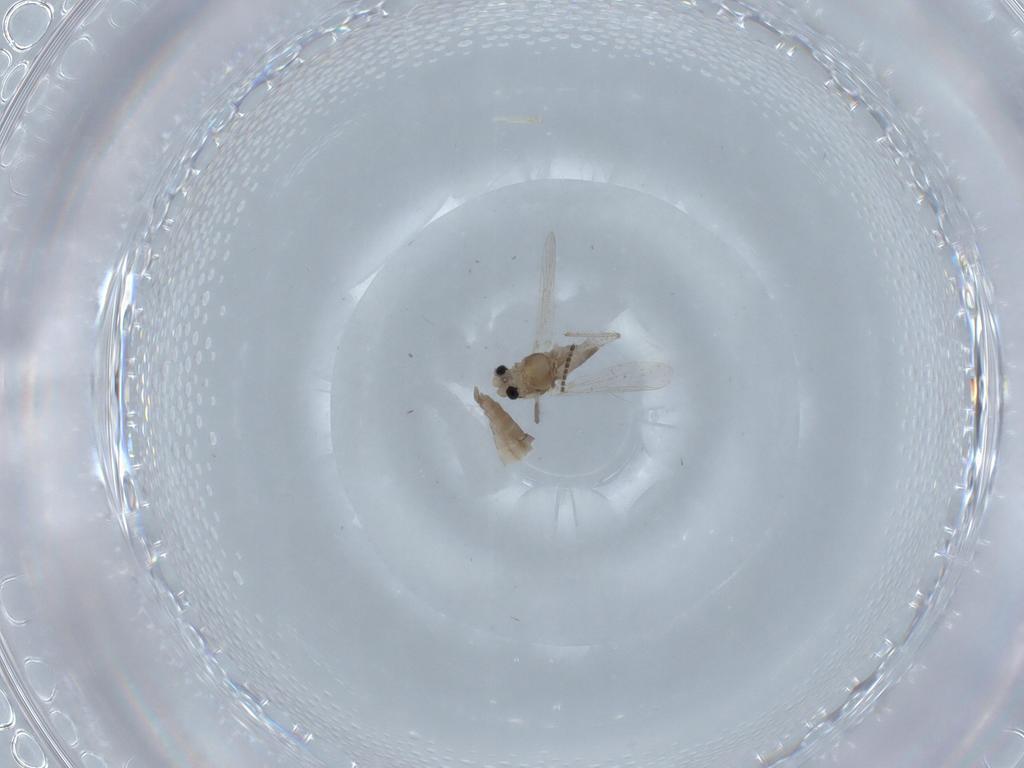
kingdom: Animalia
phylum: Arthropoda
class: Insecta
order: Diptera
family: Chironomidae
